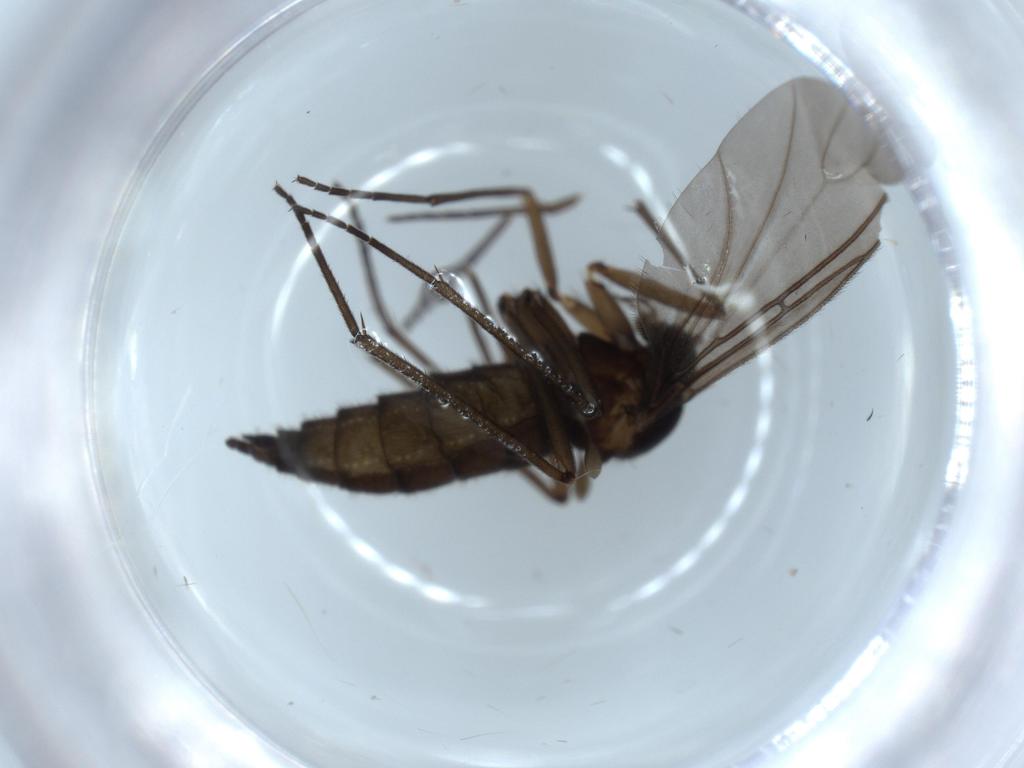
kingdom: Animalia
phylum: Arthropoda
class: Insecta
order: Diptera
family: Sciaridae
